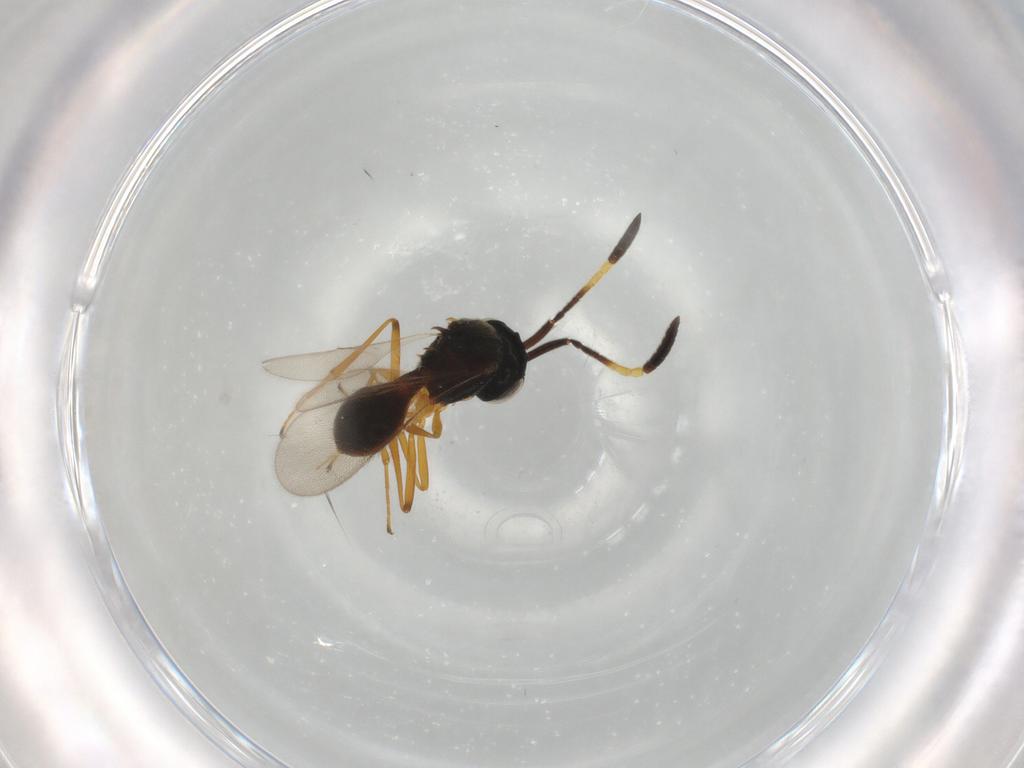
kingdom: Animalia
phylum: Arthropoda
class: Insecta
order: Hymenoptera
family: Scelionidae
